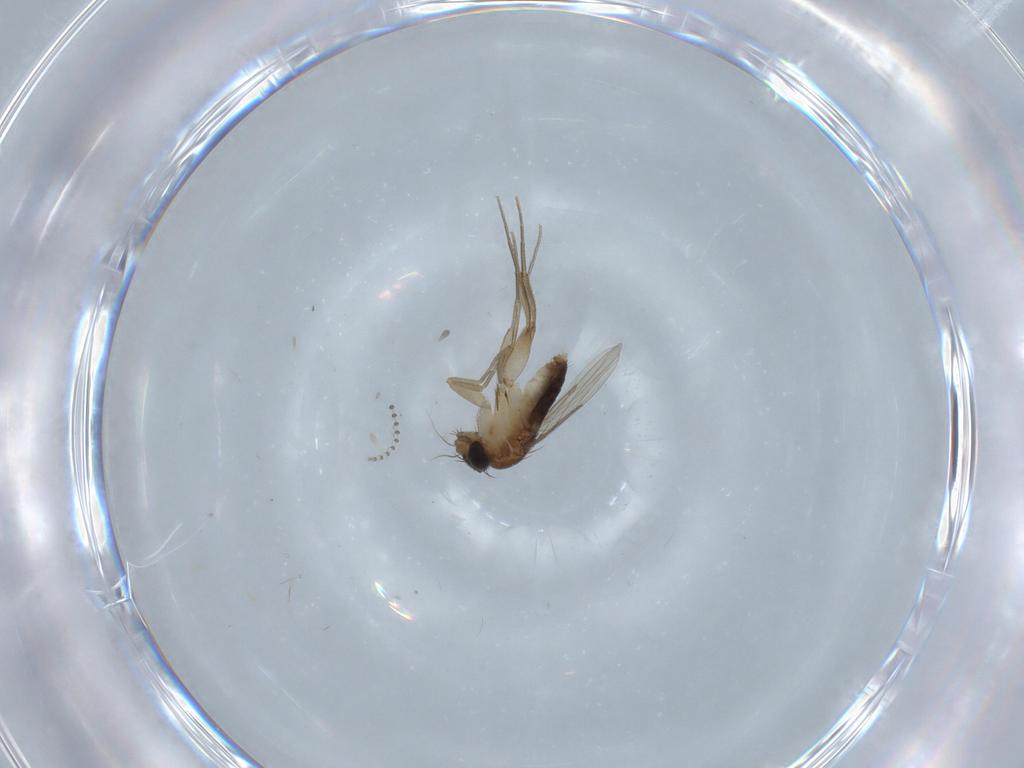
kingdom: Animalia
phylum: Arthropoda
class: Insecta
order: Diptera
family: Phoridae
